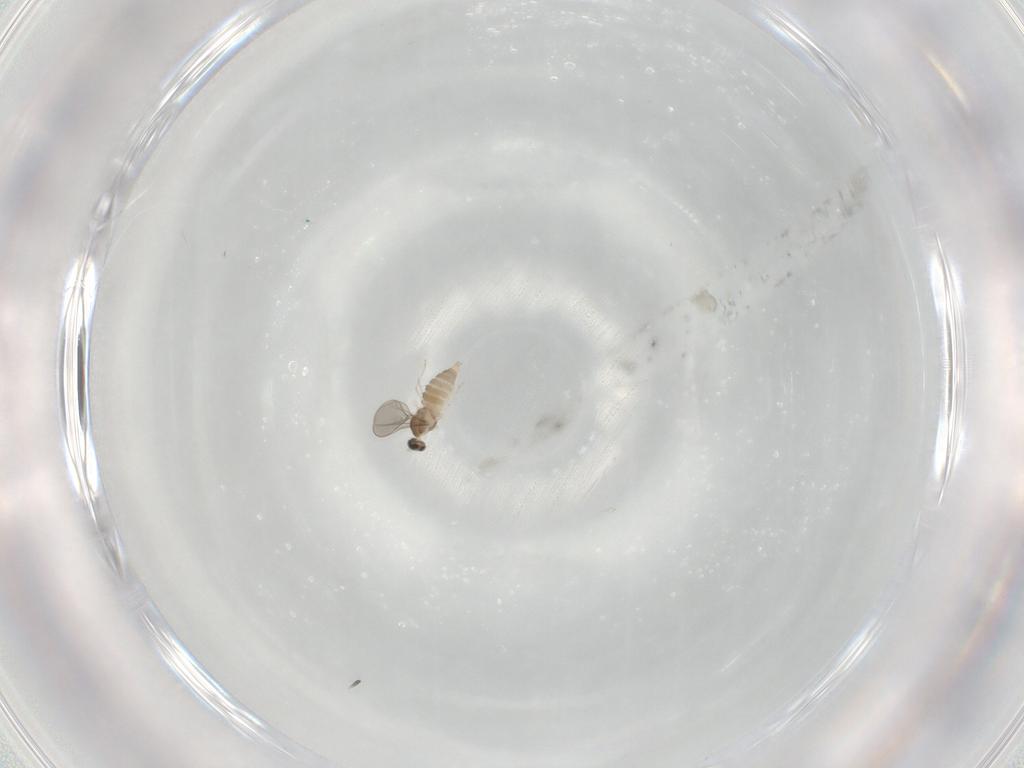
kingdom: Animalia
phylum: Arthropoda
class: Insecta
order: Diptera
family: Cecidomyiidae
